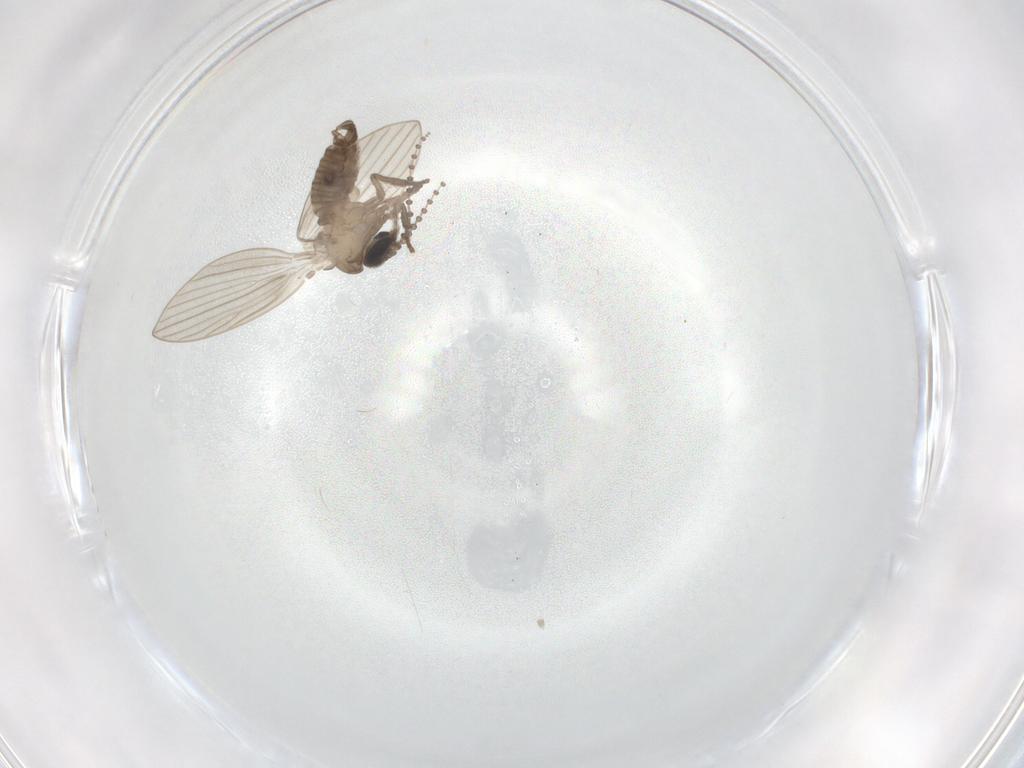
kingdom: Animalia
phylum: Arthropoda
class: Insecta
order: Diptera
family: Psychodidae
